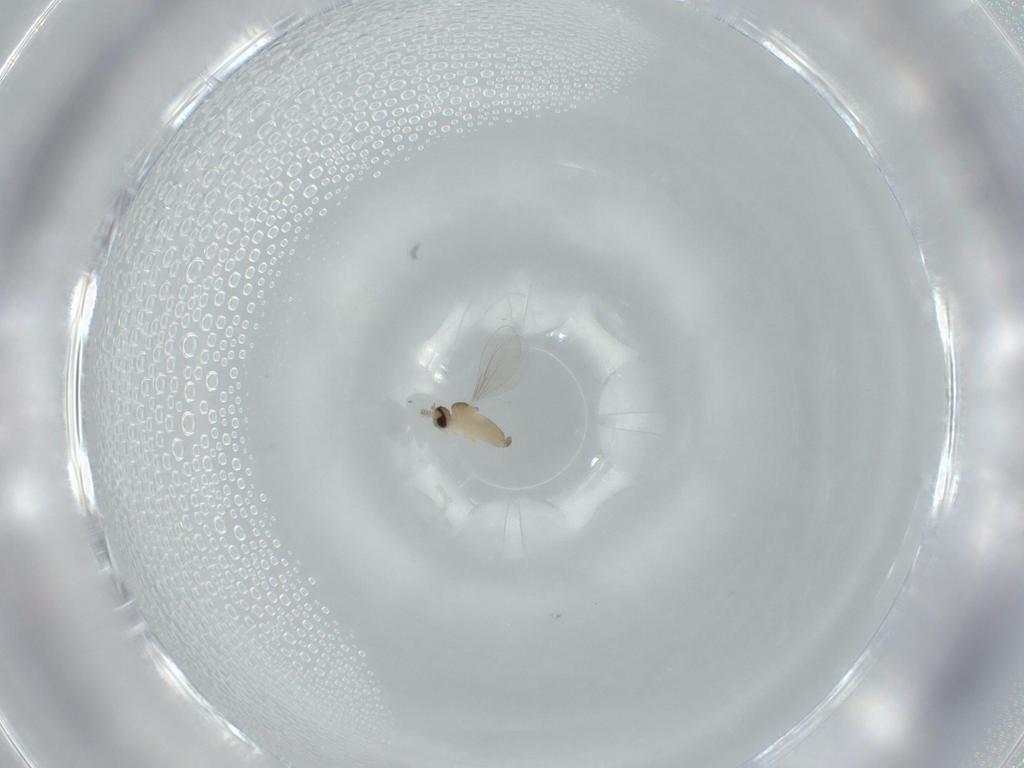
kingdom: Animalia
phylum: Arthropoda
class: Insecta
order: Diptera
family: Cecidomyiidae
